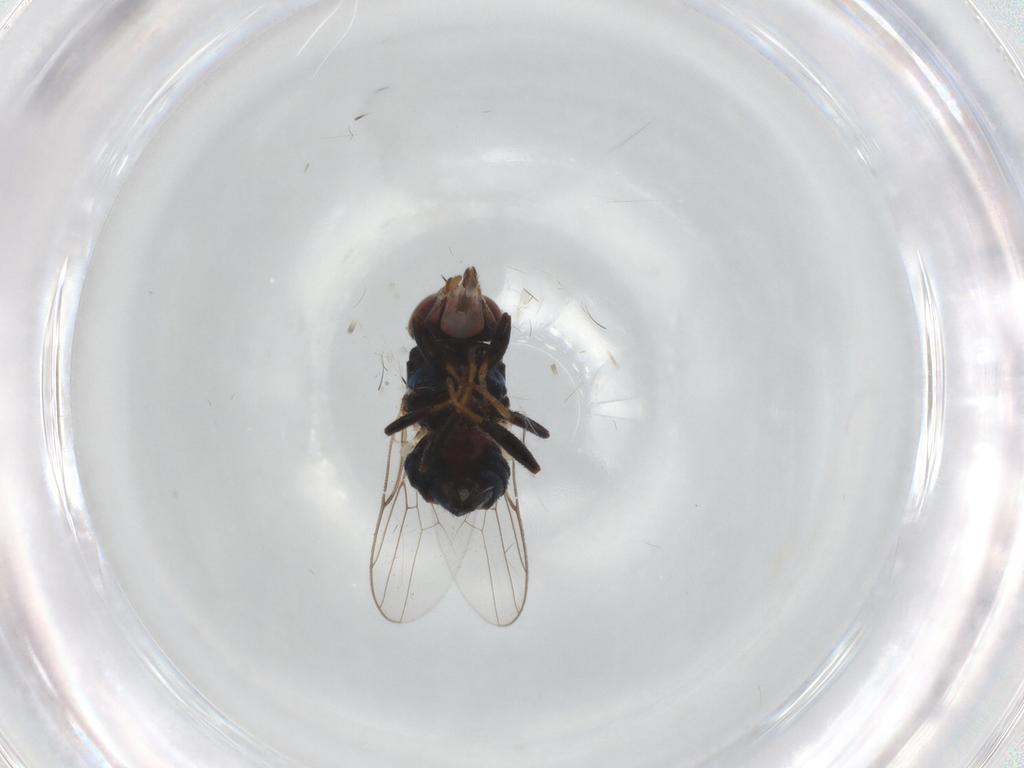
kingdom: Animalia
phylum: Arthropoda
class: Insecta
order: Diptera
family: Chloropidae
